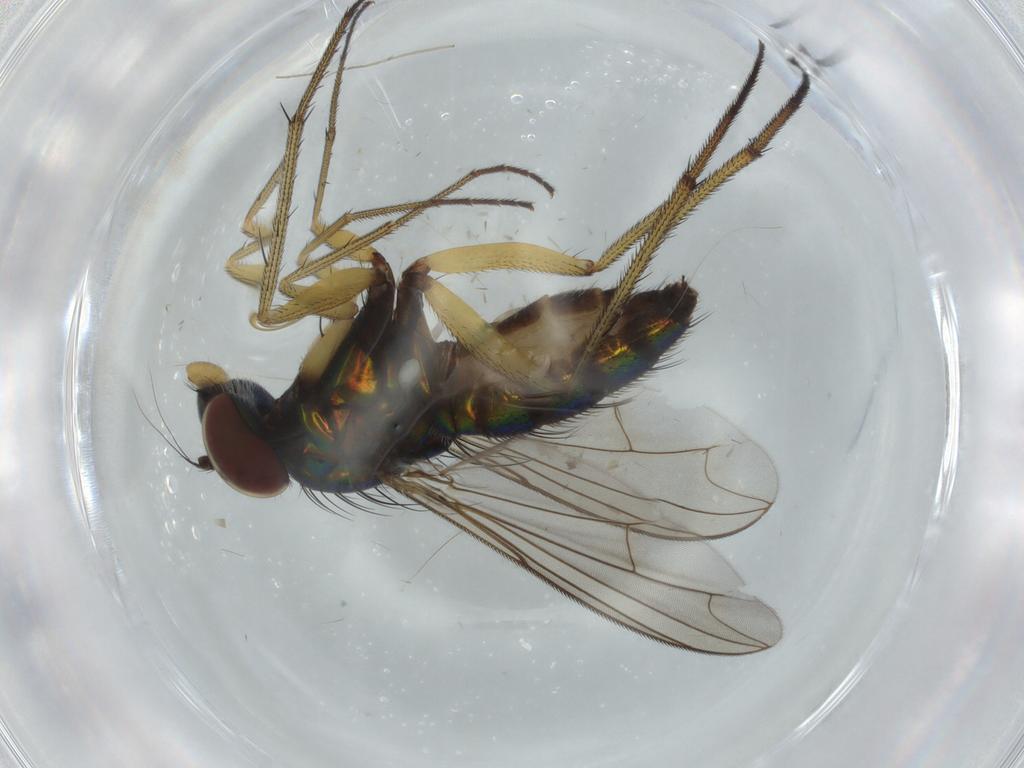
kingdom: Animalia
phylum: Arthropoda
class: Insecta
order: Diptera
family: Dolichopodidae
